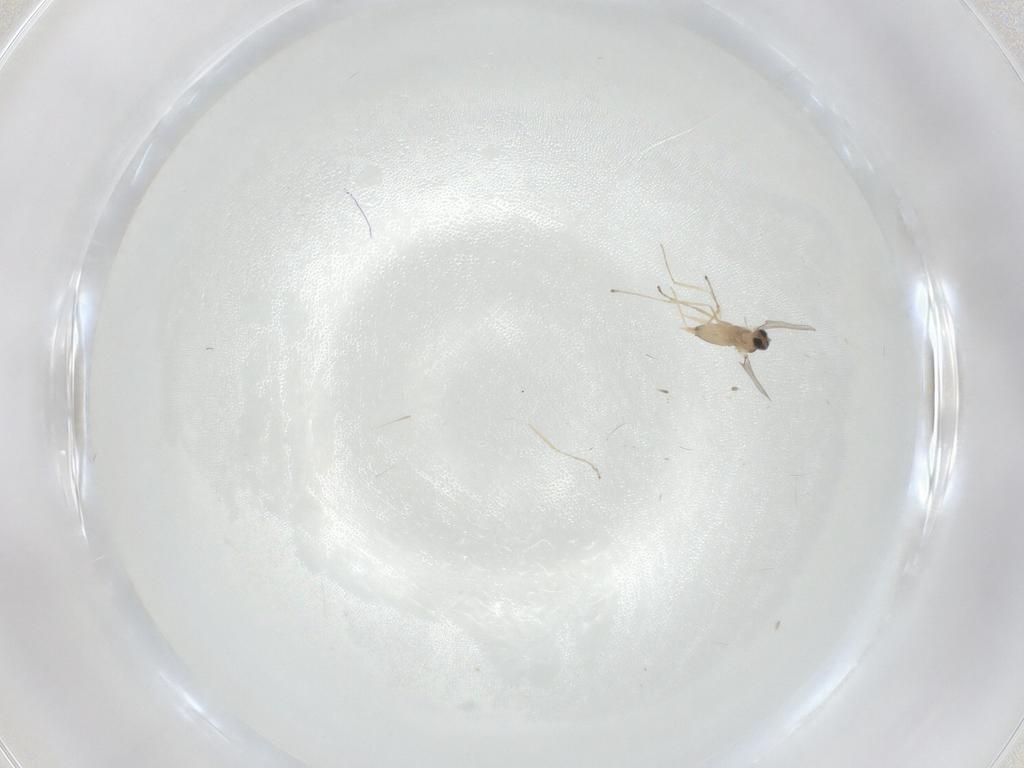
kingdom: Animalia
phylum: Arthropoda
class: Insecta
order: Diptera
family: Cecidomyiidae
